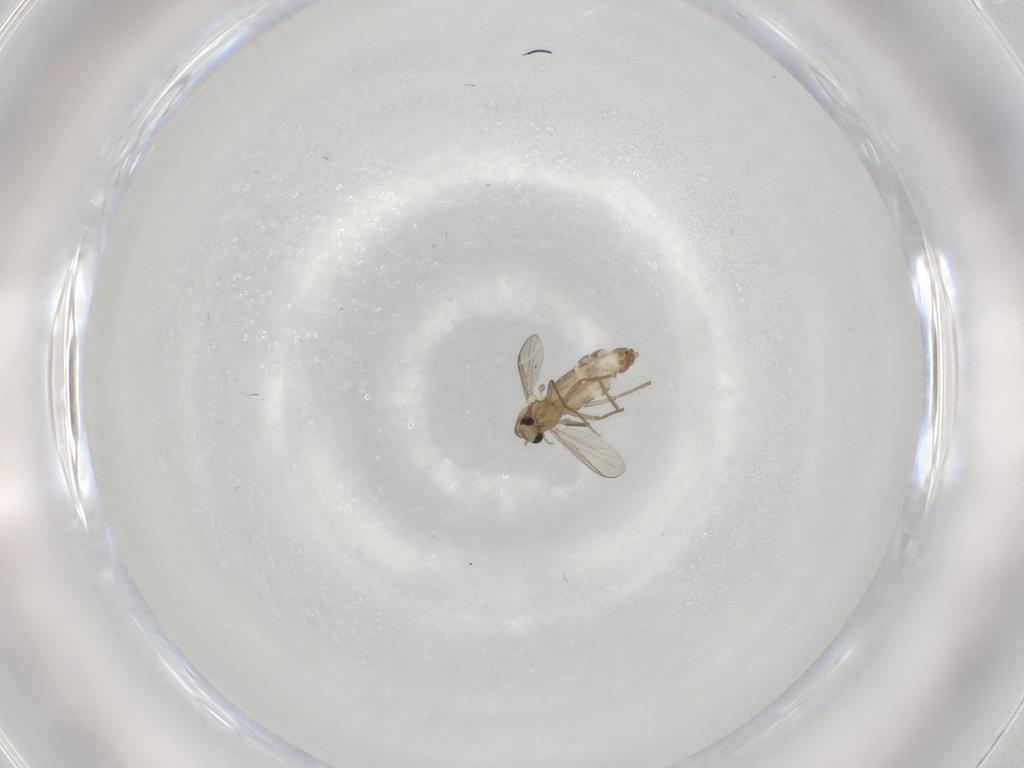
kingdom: Animalia
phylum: Arthropoda
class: Insecta
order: Diptera
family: Chironomidae
